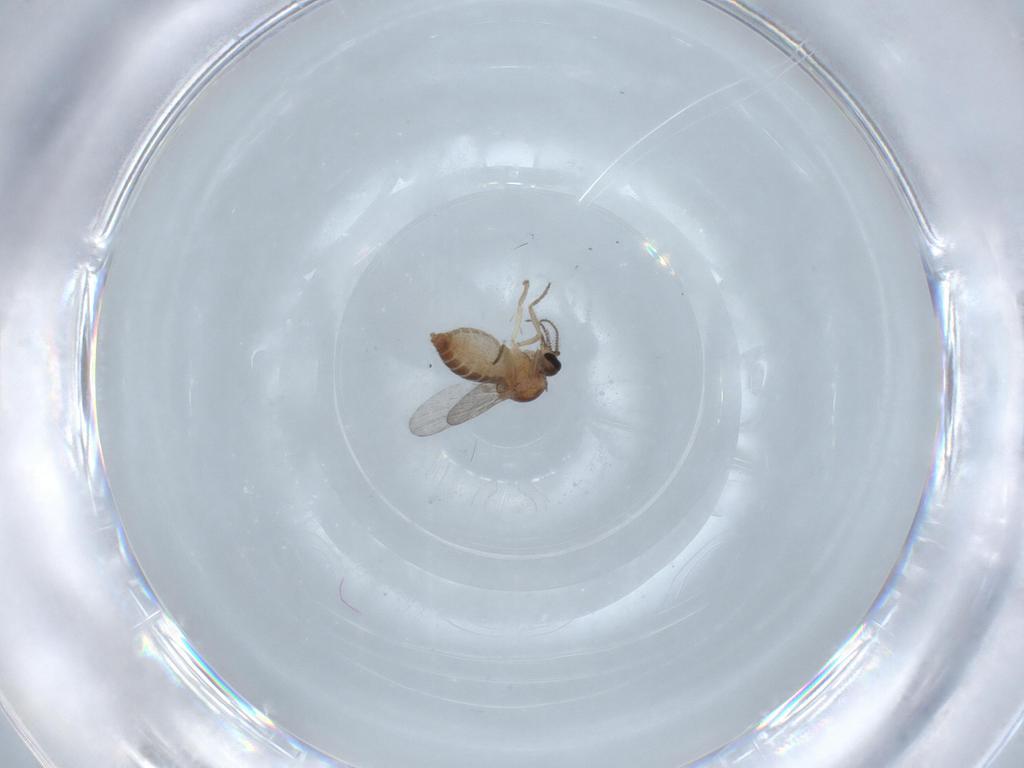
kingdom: Animalia
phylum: Arthropoda
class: Insecta
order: Diptera
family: Ceratopogonidae
